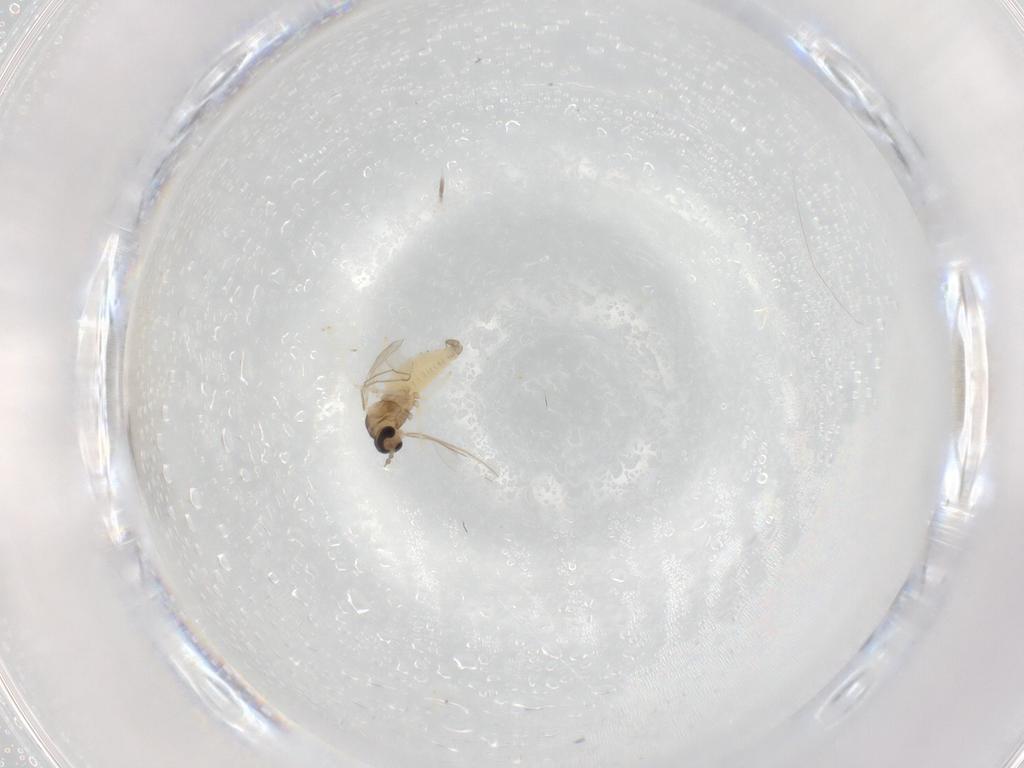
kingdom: Animalia
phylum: Arthropoda
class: Insecta
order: Diptera
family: Cecidomyiidae
